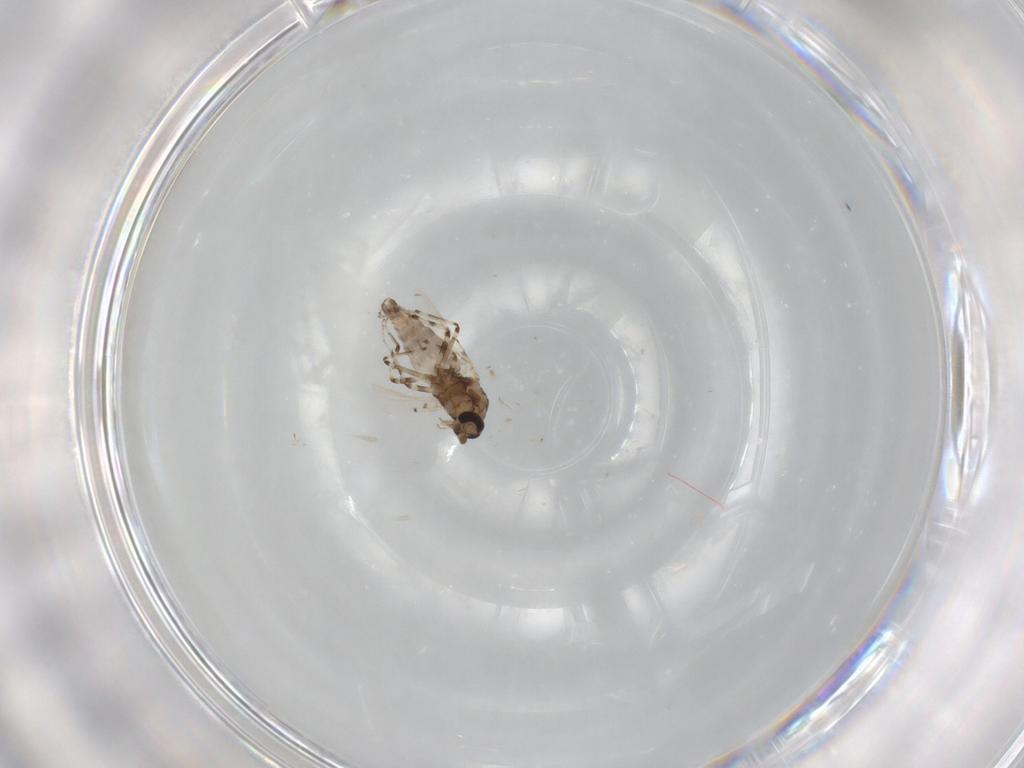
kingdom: Animalia
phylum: Arthropoda
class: Insecta
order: Diptera
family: Ceratopogonidae
